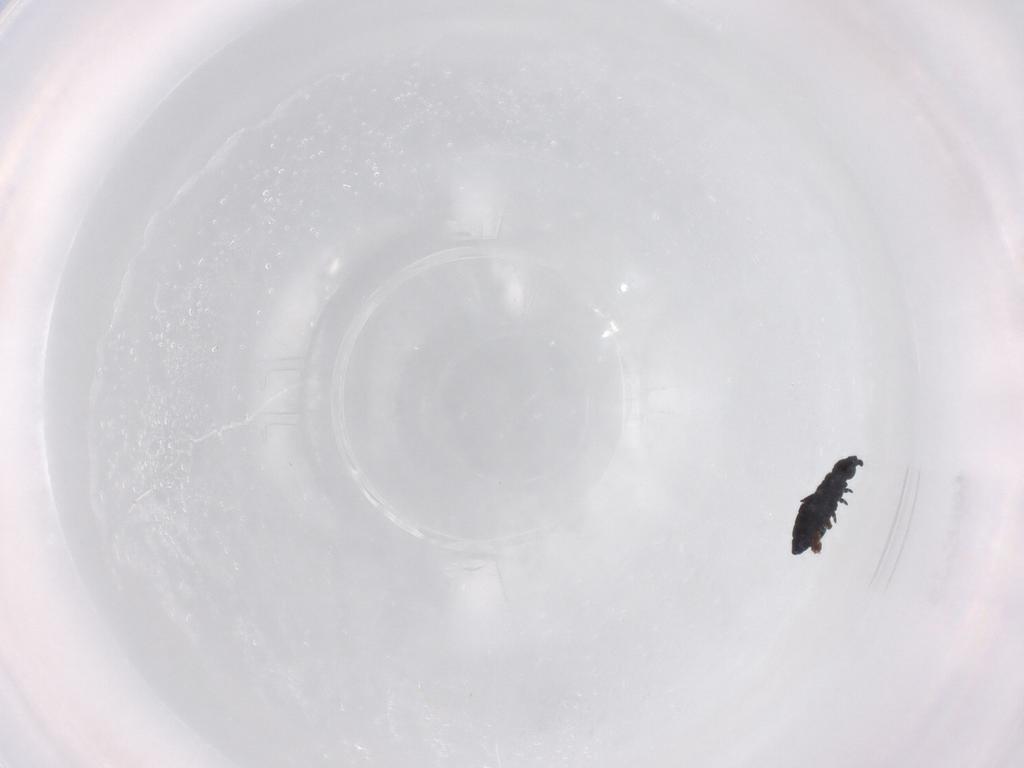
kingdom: Animalia
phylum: Arthropoda
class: Collembola
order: Poduromorpha
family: Hypogastruridae
